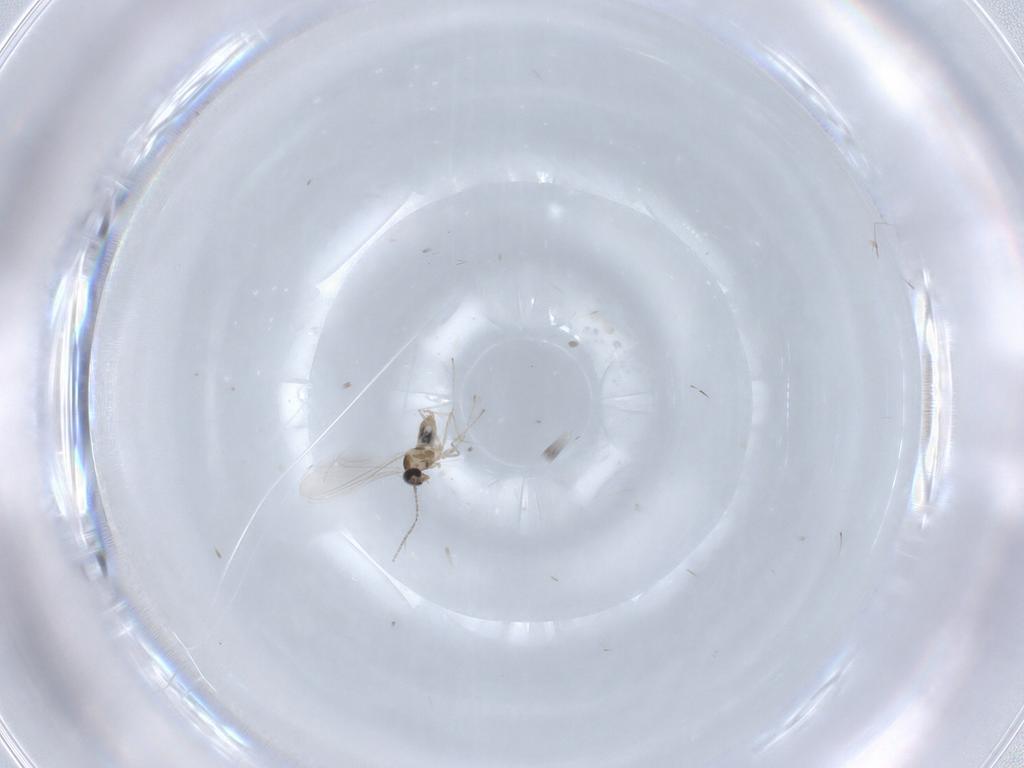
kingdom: Animalia
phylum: Arthropoda
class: Insecta
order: Diptera
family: Cecidomyiidae
